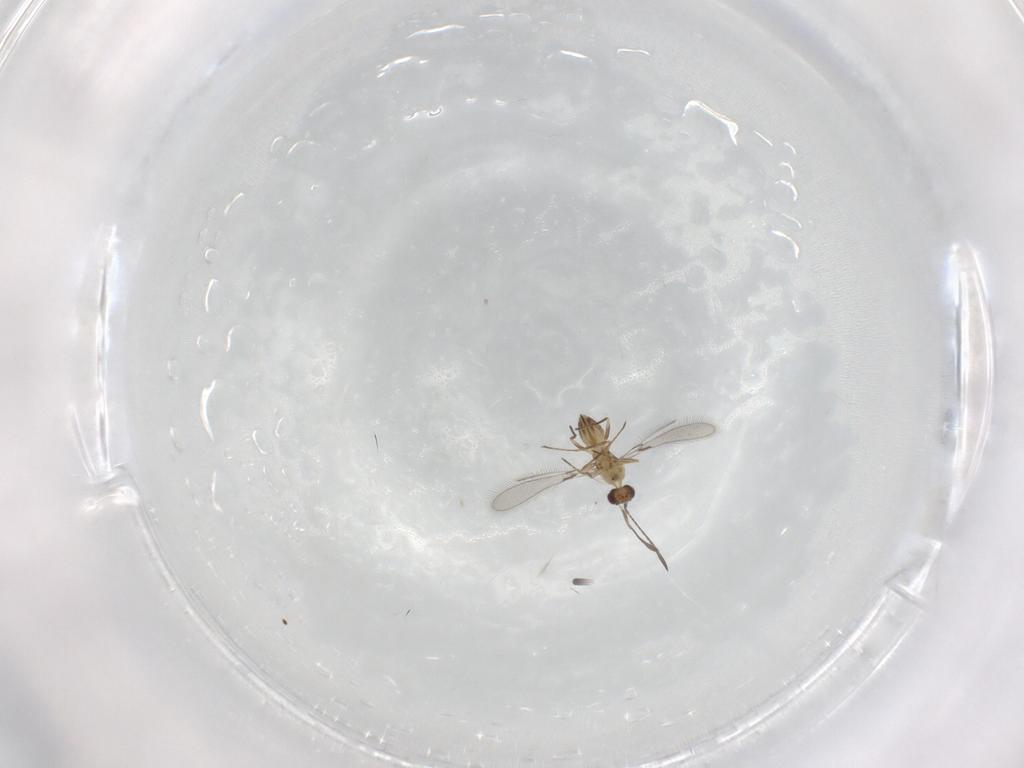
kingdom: Animalia
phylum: Arthropoda
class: Insecta
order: Hymenoptera
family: Mymaridae
